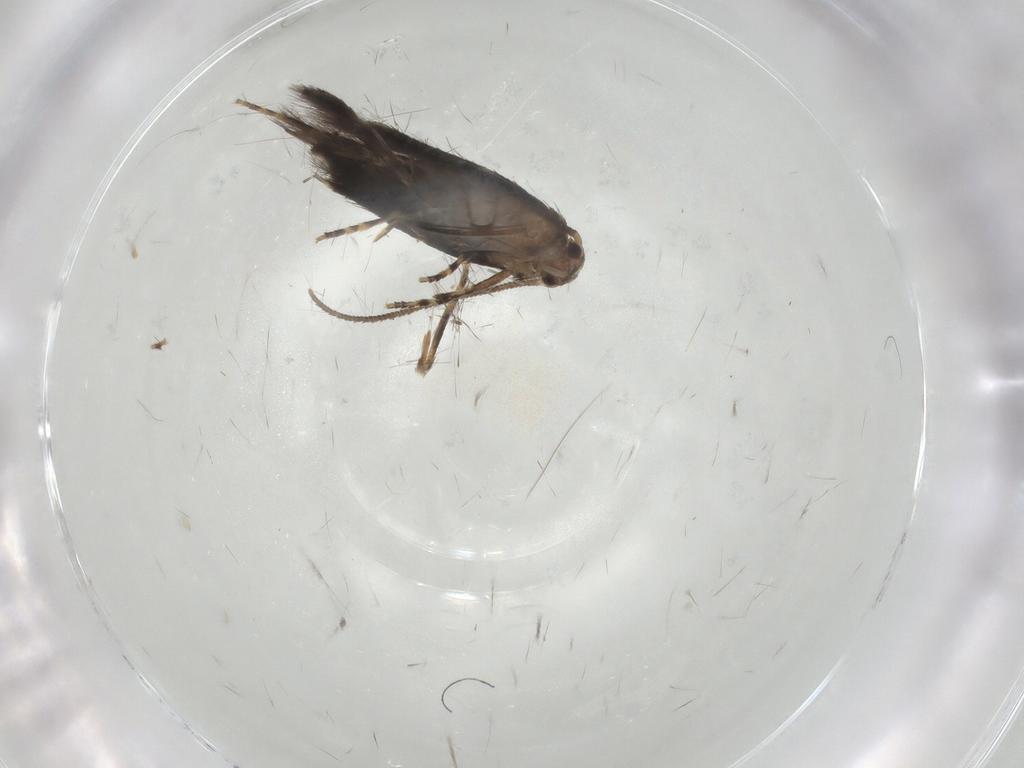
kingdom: Animalia
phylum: Arthropoda
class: Insecta
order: Lepidoptera
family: Elachistidae
